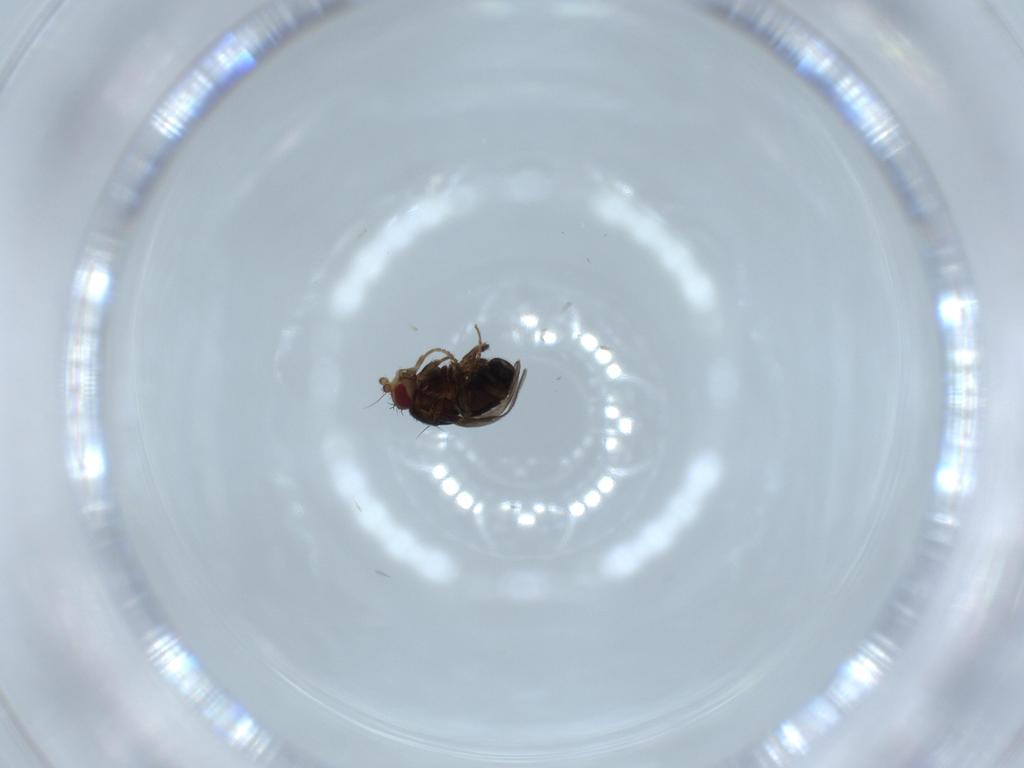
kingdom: Animalia
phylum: Arthropoda
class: Insecta
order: Diptera
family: Sphaeroceridae
